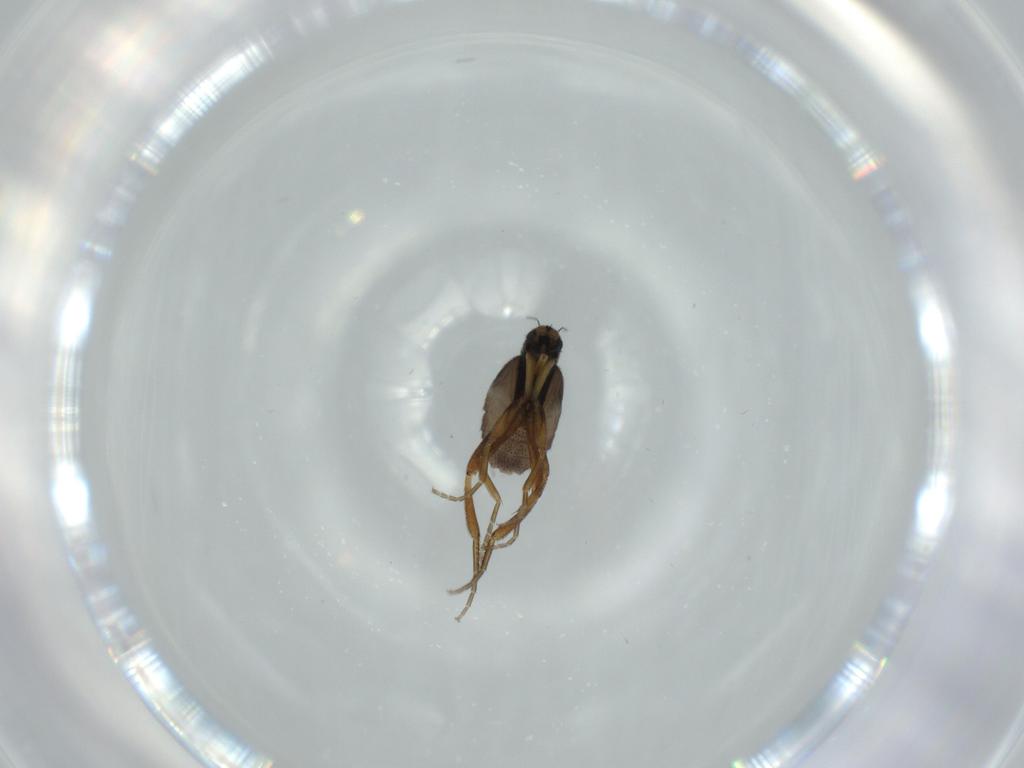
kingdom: Animalia
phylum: Arthropoda
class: Insecta
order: Diptera
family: Phoridae
